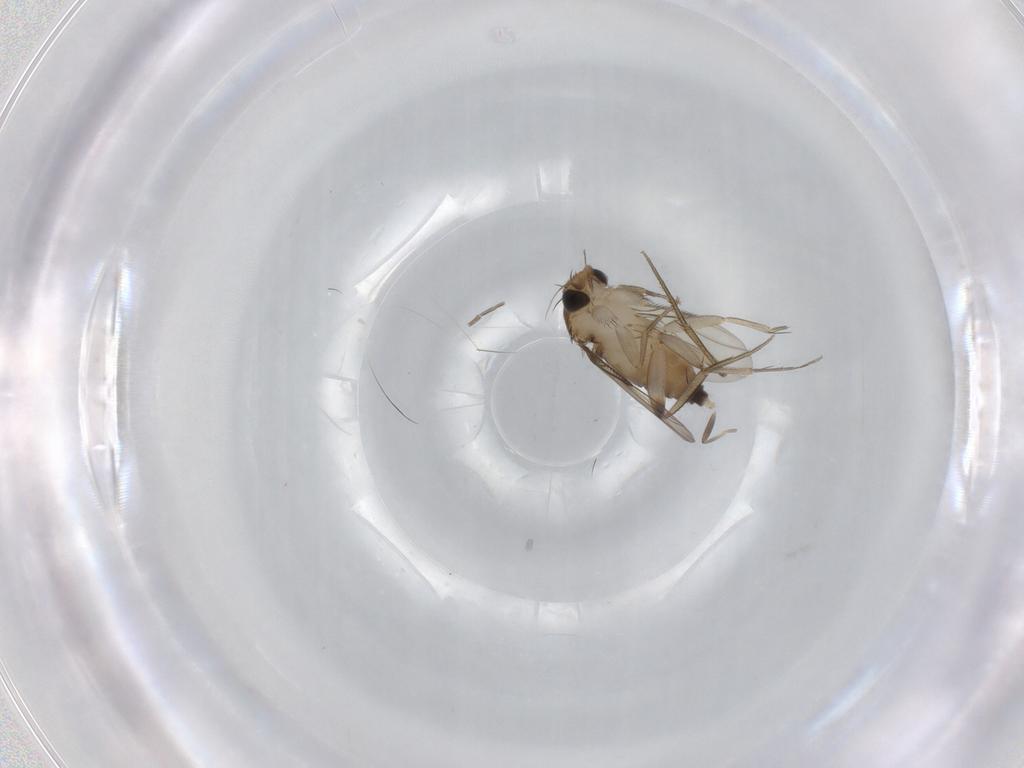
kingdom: Animalia
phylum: Arthropoda
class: Insecta
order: Diptera
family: Phoridae
